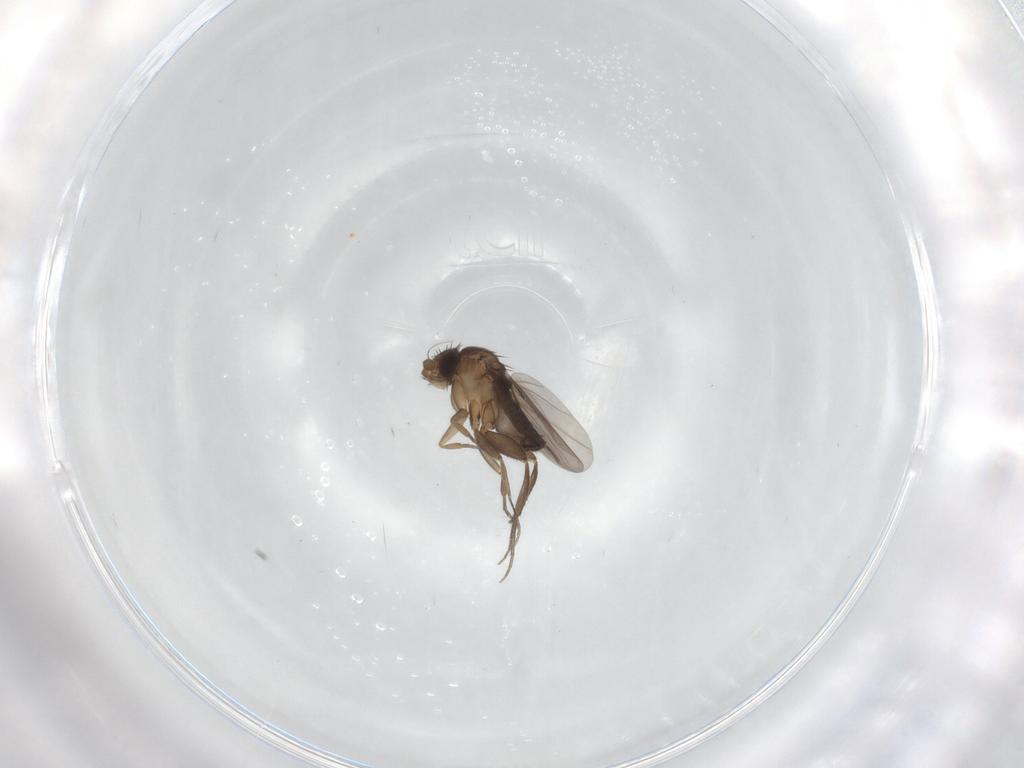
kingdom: Animalia
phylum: Arthropoda
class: Insecta
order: Diptera
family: Phoridae
